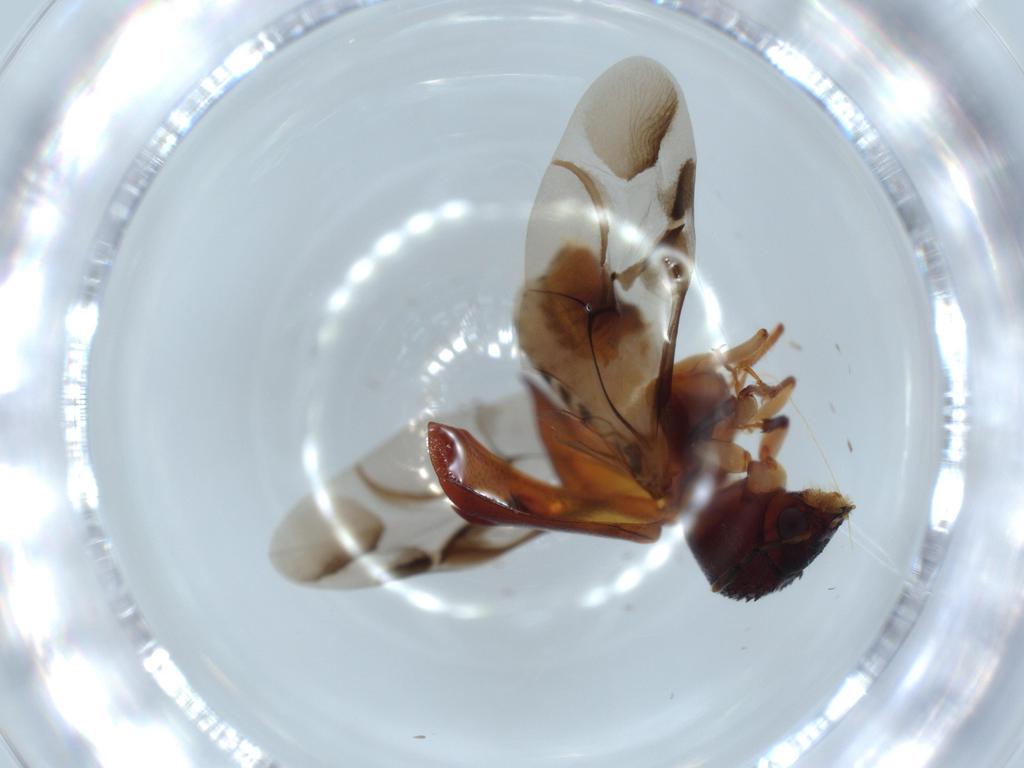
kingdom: Animalia
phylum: Arthropoda
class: Insecta
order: Coleoptera
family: Bostrichidae
